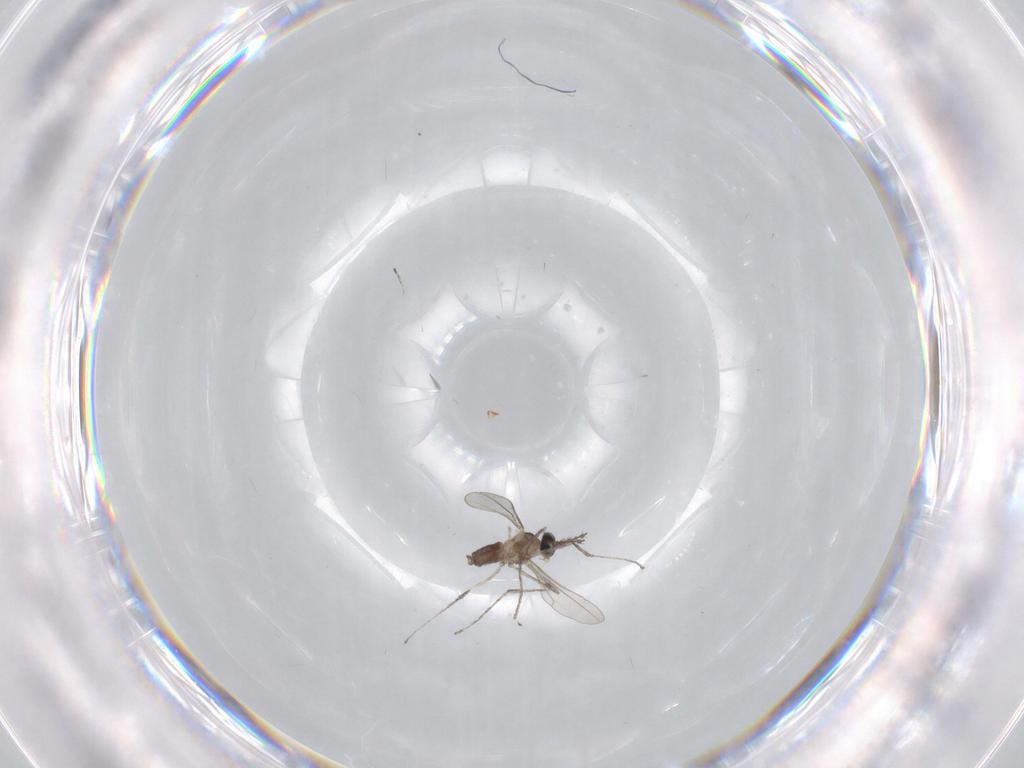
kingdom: Animalia
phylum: Arthropoda
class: Insecta
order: Diptera
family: Cecidomyiidae
